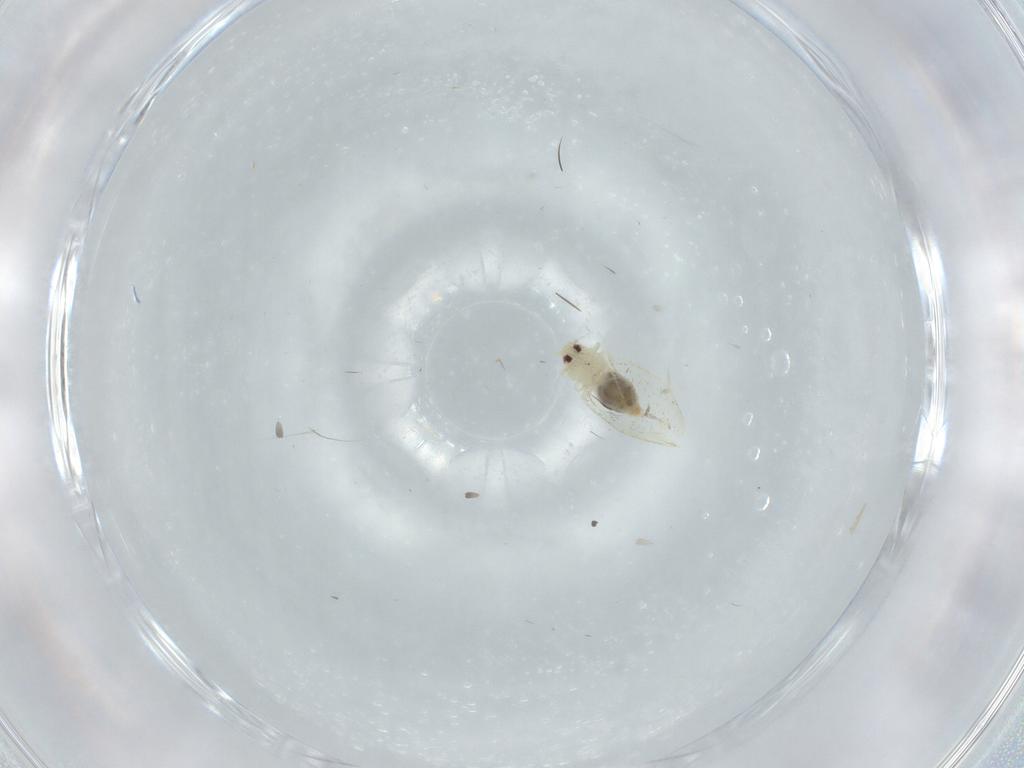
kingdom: Animalia
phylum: Arthropoda
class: Insecta
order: Hemiptera
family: Aleyrodidae
